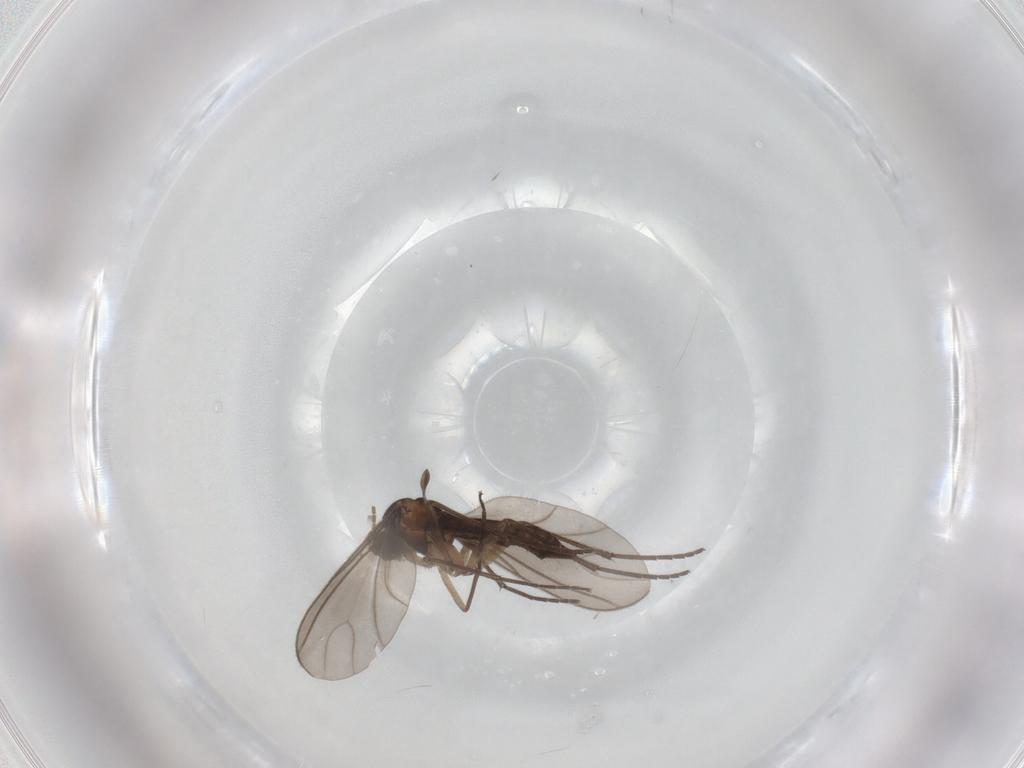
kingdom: Animalia
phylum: Arthropoda
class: Insecta
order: Diptera
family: Sciaridae
